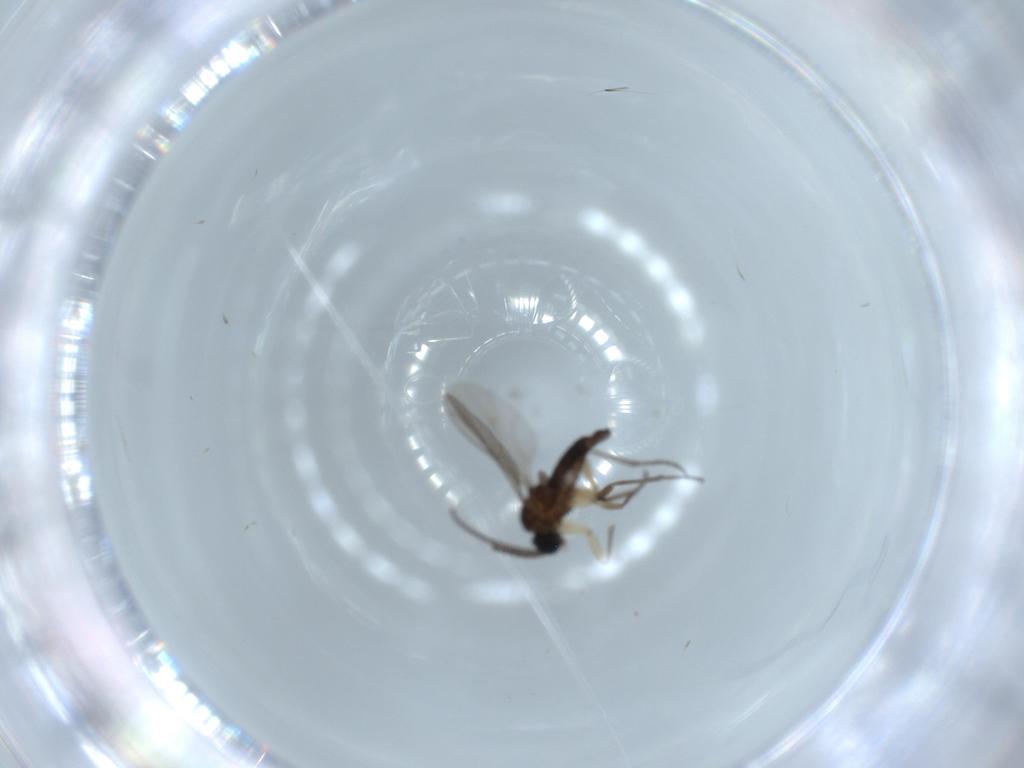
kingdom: Animalia
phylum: Arthropoda
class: Insecta
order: Diptera
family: Sciaridae
